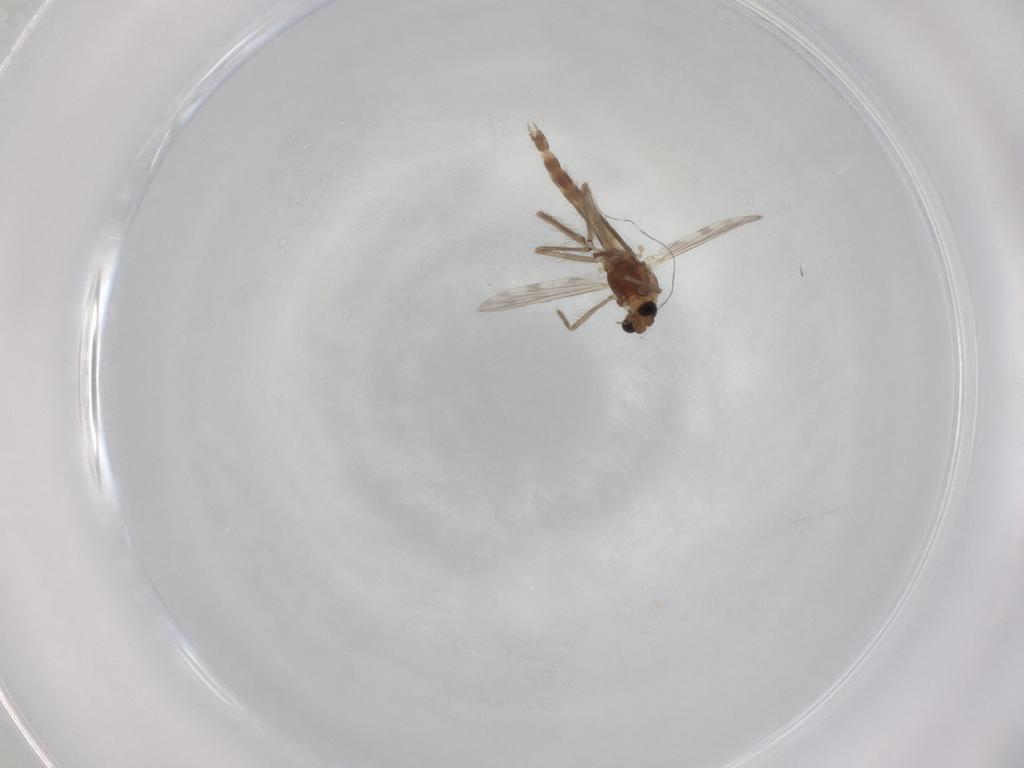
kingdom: Animalia
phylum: Arthropoda
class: Insecta
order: Diptera
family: Chironomidae
